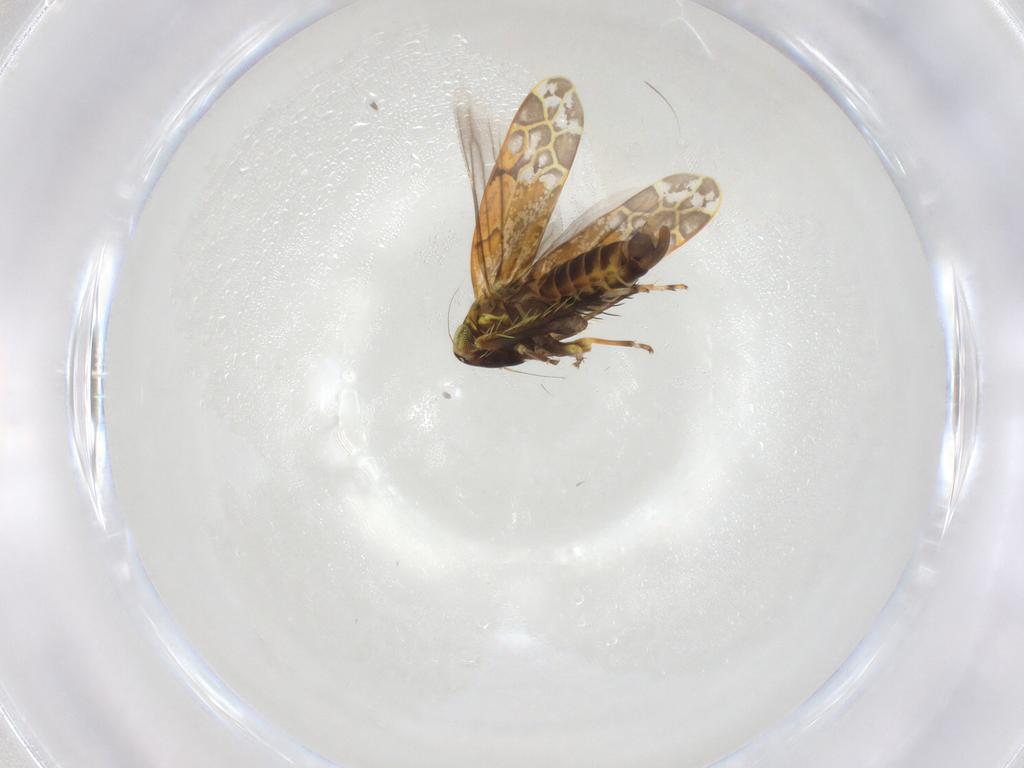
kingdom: Animalia
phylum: Arthropoda
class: Insecta
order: Hemiptera
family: Cicadellidae
